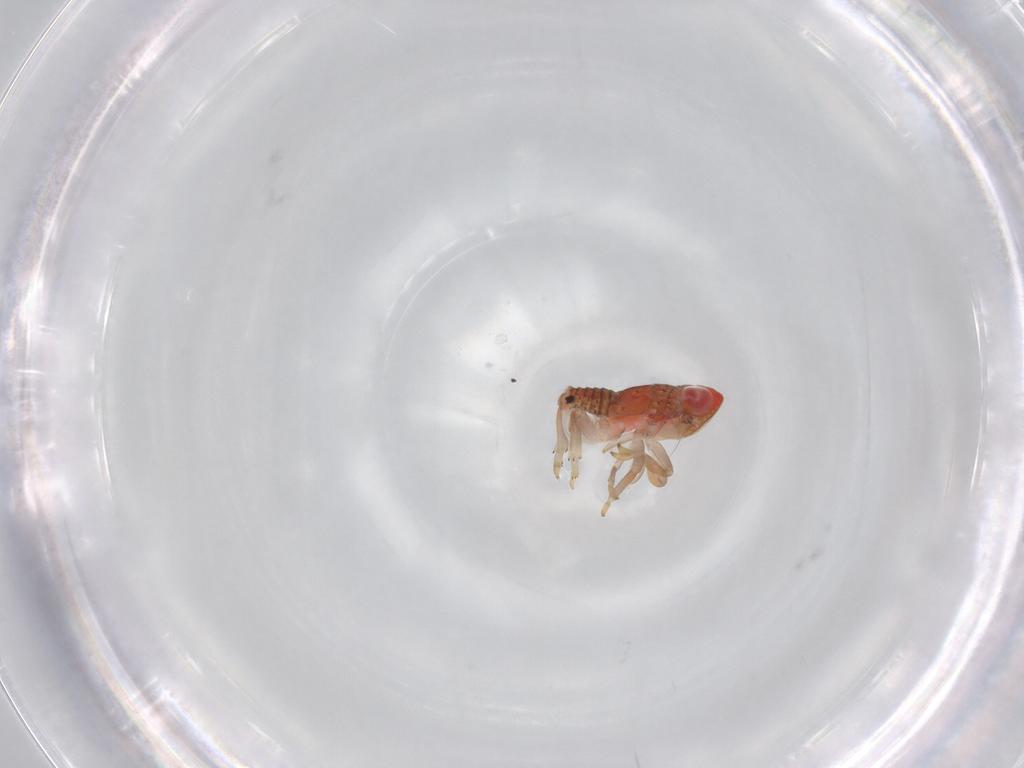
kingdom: Animalia
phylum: Arthropoda
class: Insecta
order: Hemiptera
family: Issidae
